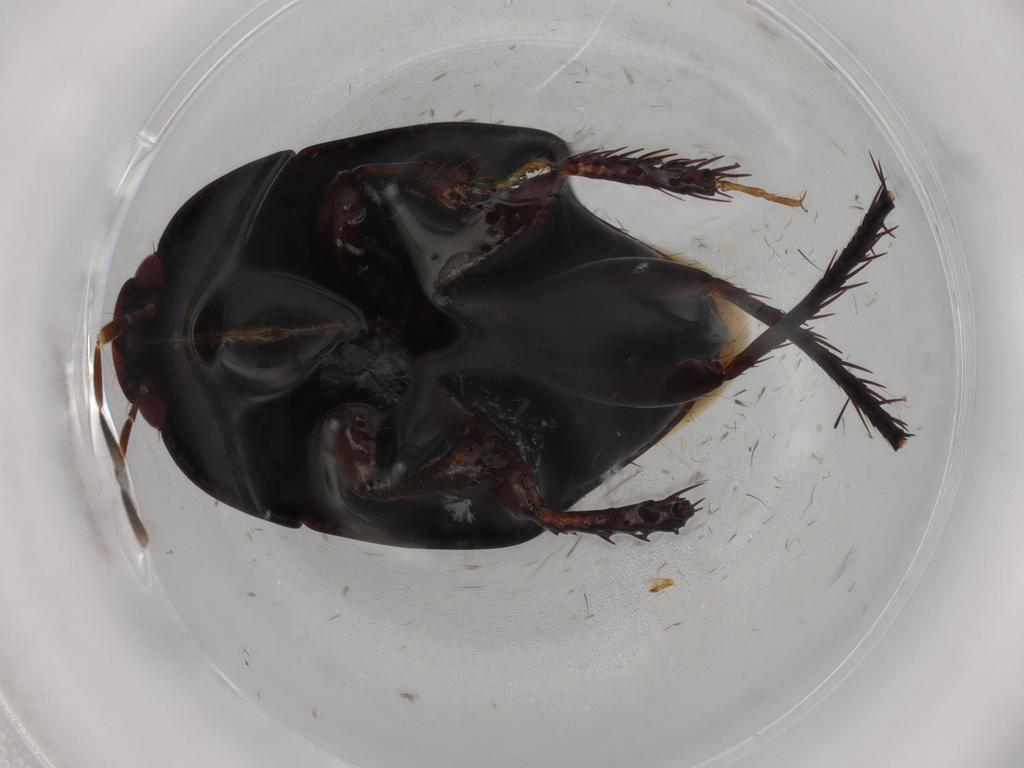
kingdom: Animalia
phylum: Arthropoda
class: Insecta
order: Hemiptera
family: Cydnidae
